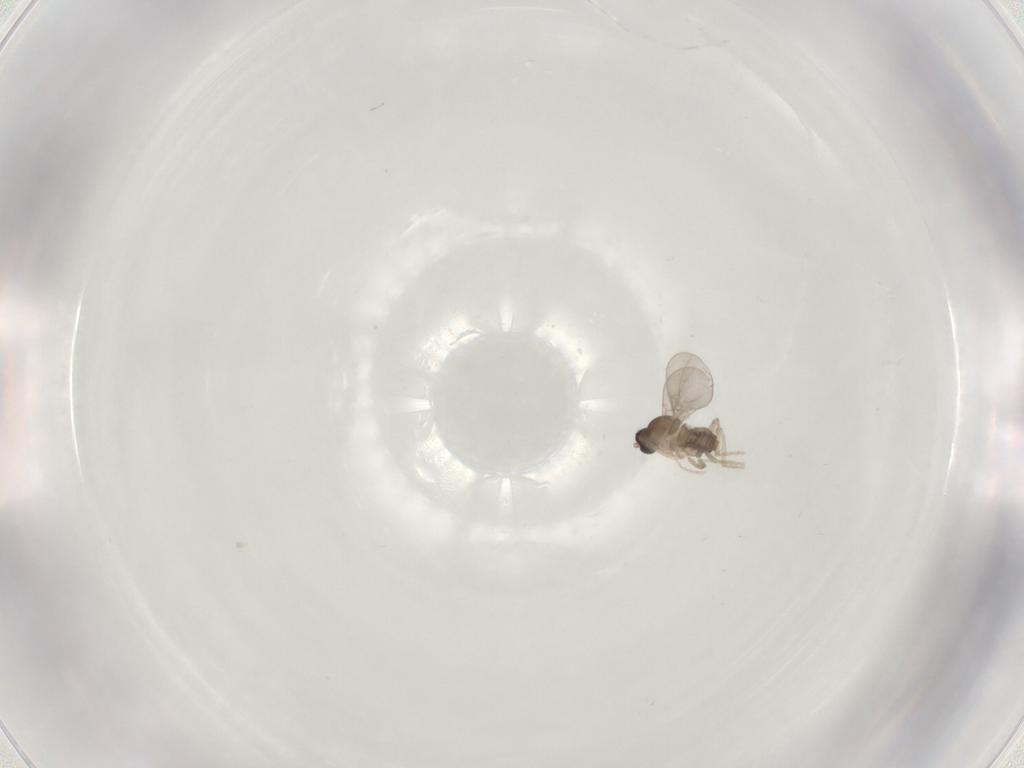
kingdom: Animalia
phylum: Arthropoda
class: Insecta
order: Diptera
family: Cecidomyiidae
